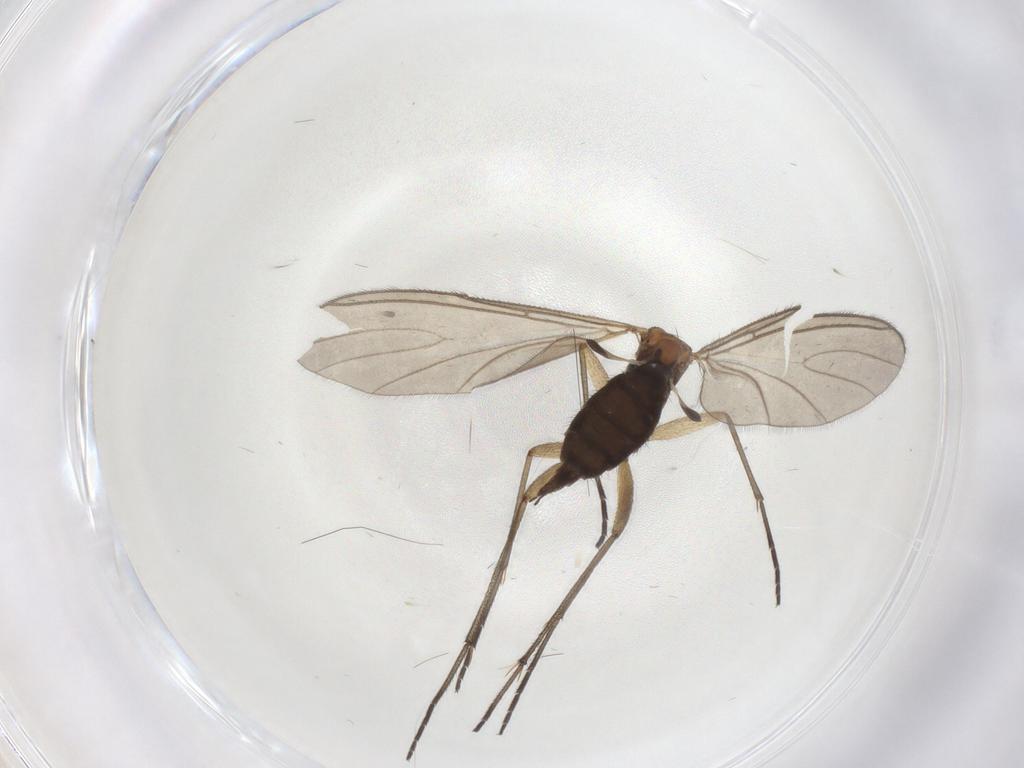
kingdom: Animalia
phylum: Arthropoda
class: Insecta
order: Diptera
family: Sciaridae
